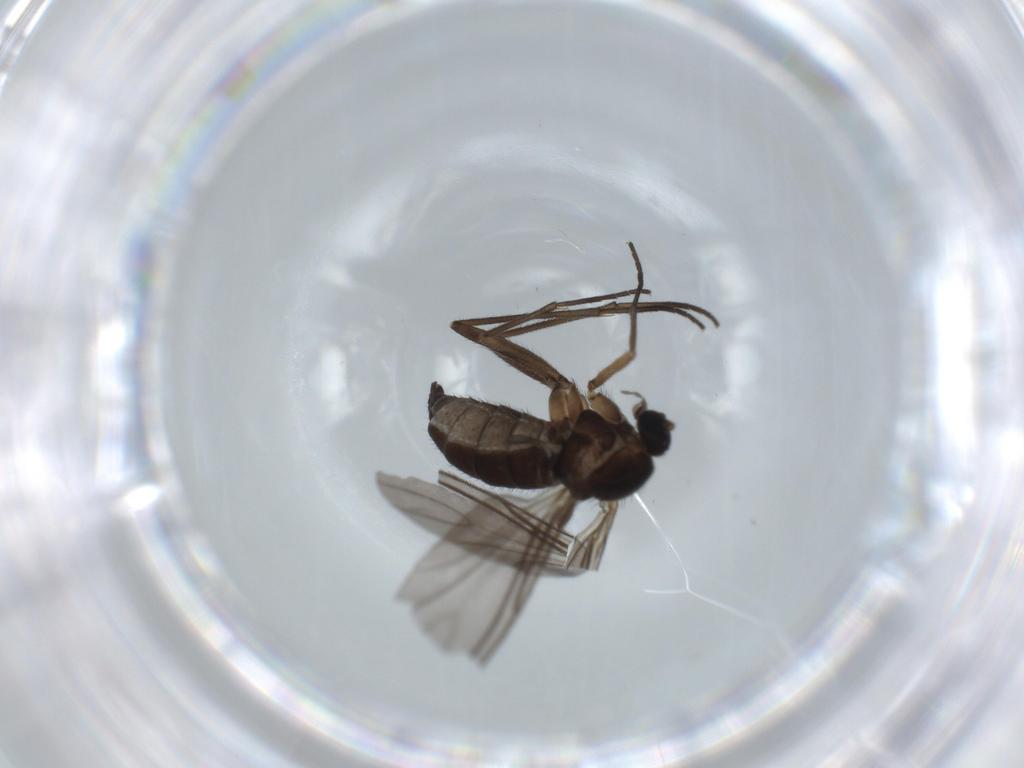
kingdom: Animalia
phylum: Arthropoda
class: Insecta
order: Diptera
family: Sciaridae
